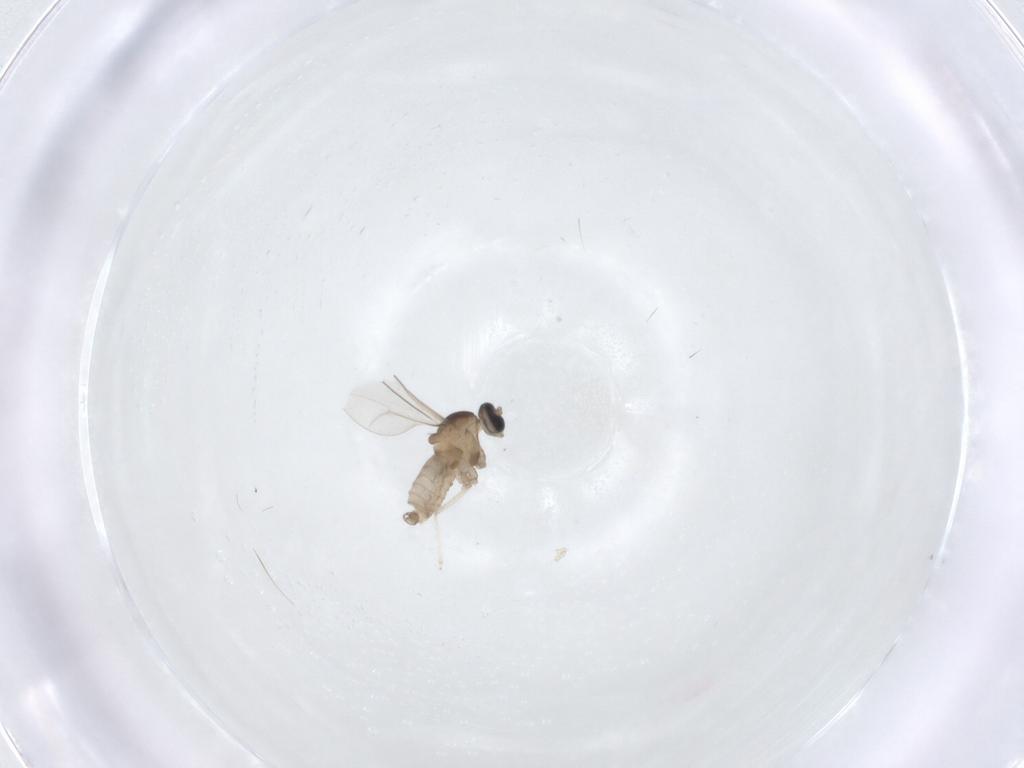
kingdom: Animalia
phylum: Arthropoda
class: Insecta
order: Diptera
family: Cecidomyiidae
